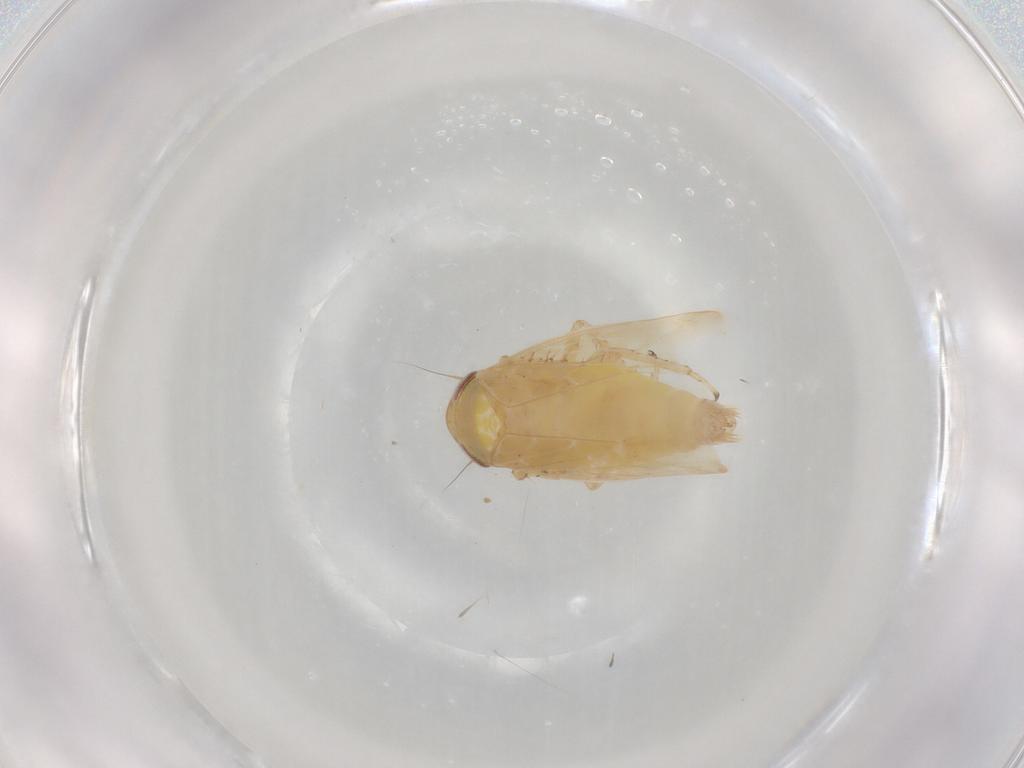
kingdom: Animalia
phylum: Arthropoda
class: Insecta
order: Hemiptera
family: Cicadellidae
